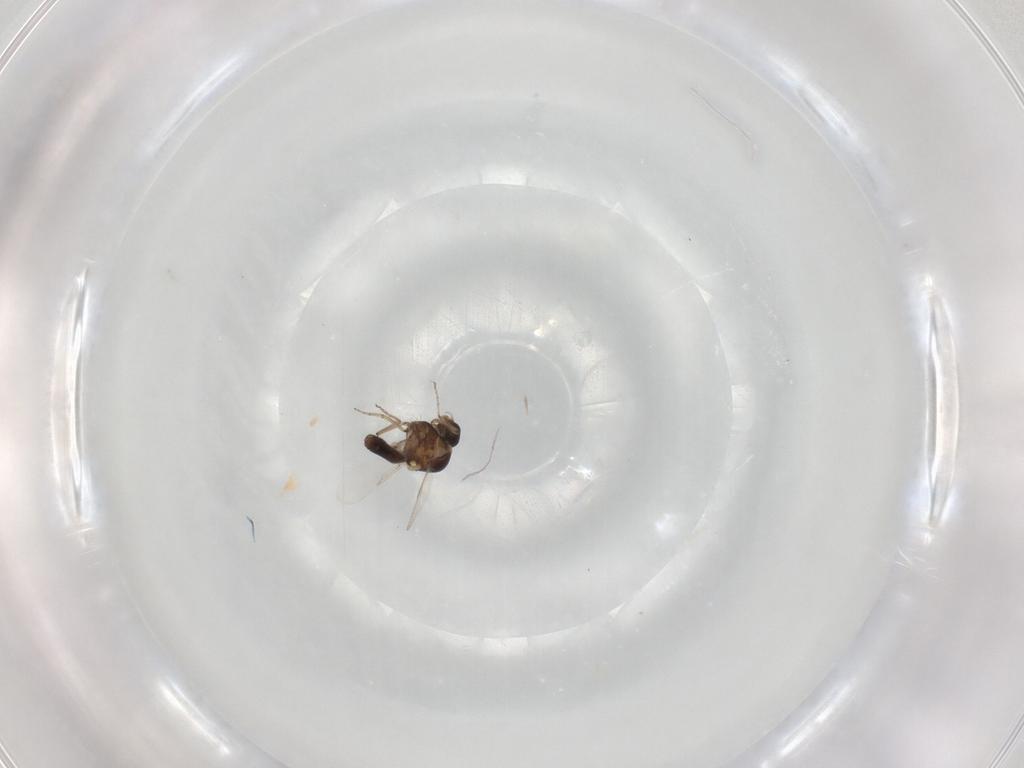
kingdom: Animalia
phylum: Arthropoda
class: Insecta
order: Diptera
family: Ceratopogonidae
